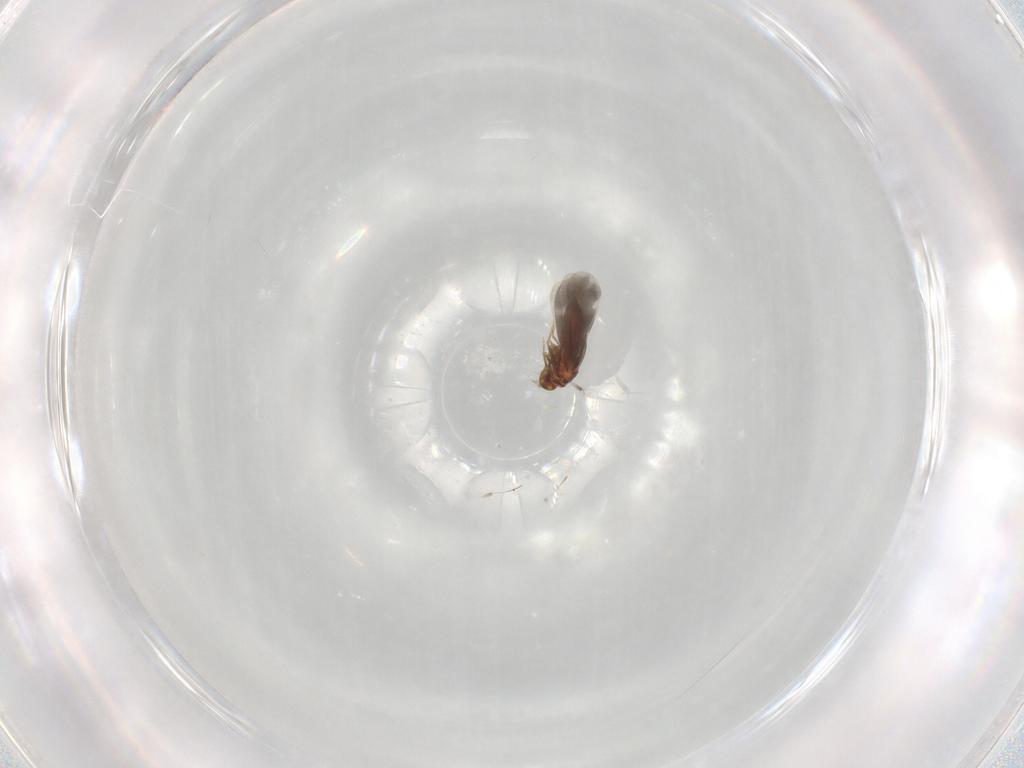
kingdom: Animalia
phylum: Arthropoda
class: Insecta
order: Hemiptera
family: Aleyrodidae
